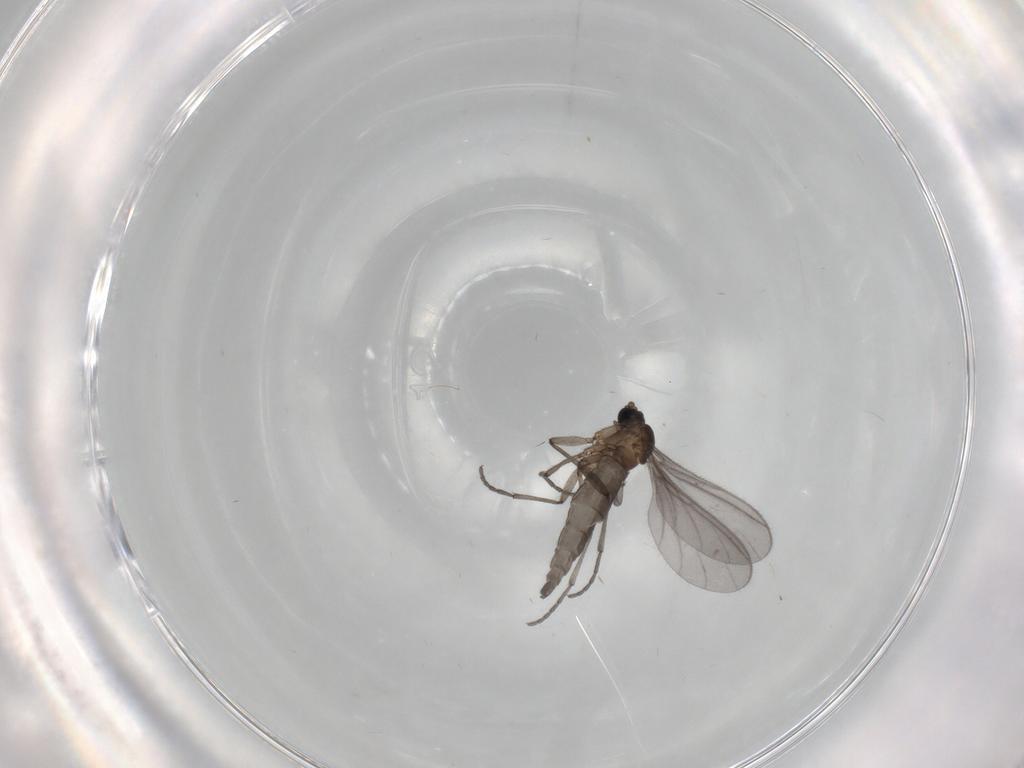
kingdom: Animalia
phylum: Arthropoda
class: Insecta
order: Diptera
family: Sciaridae
